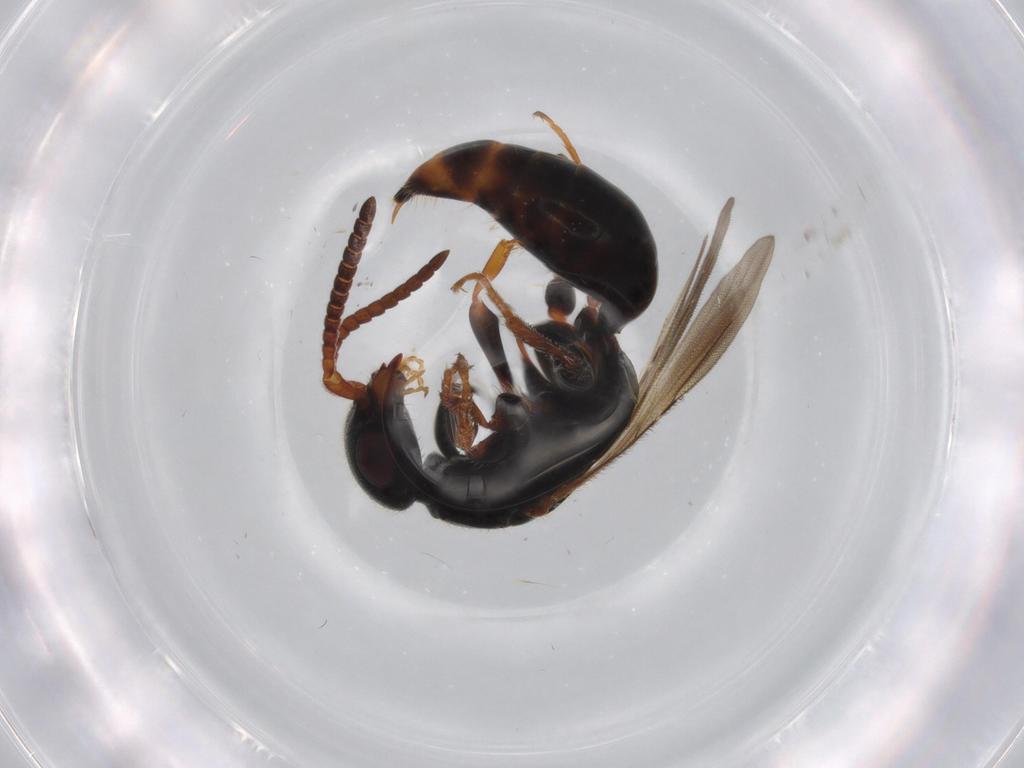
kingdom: Animalia
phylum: Arthropoda
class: Insecta
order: Hymenoptera
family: Bethylidae
